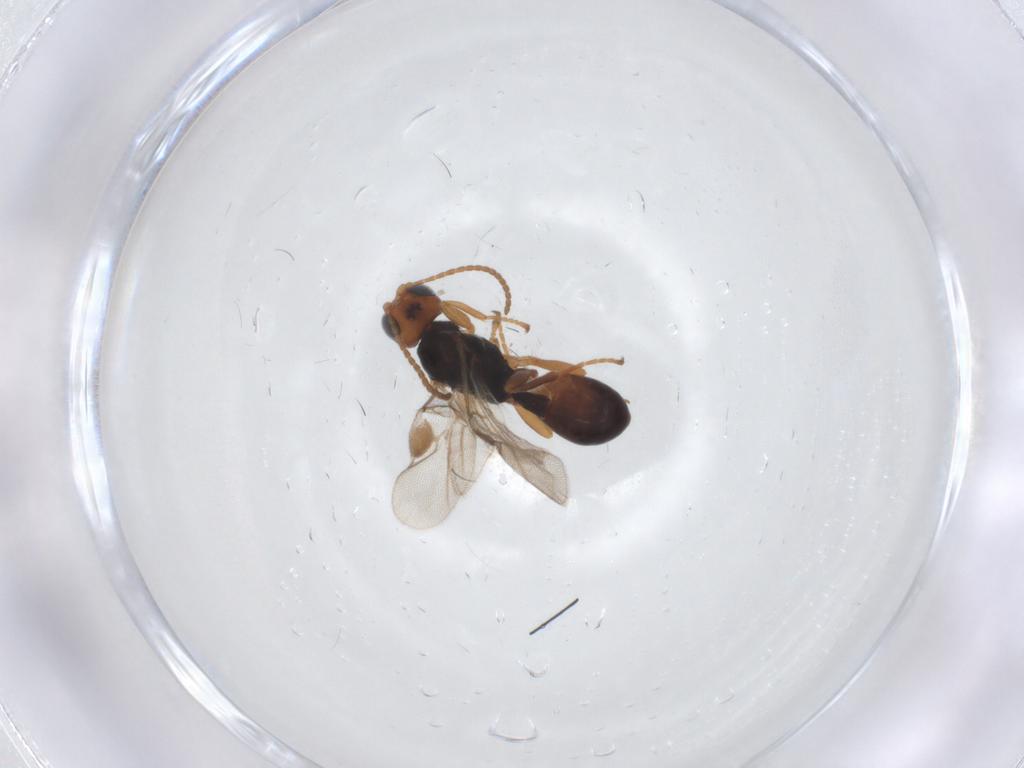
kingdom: Animalia
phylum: Arthropoda
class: Insecta
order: Hymenoptera
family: Braconidae
